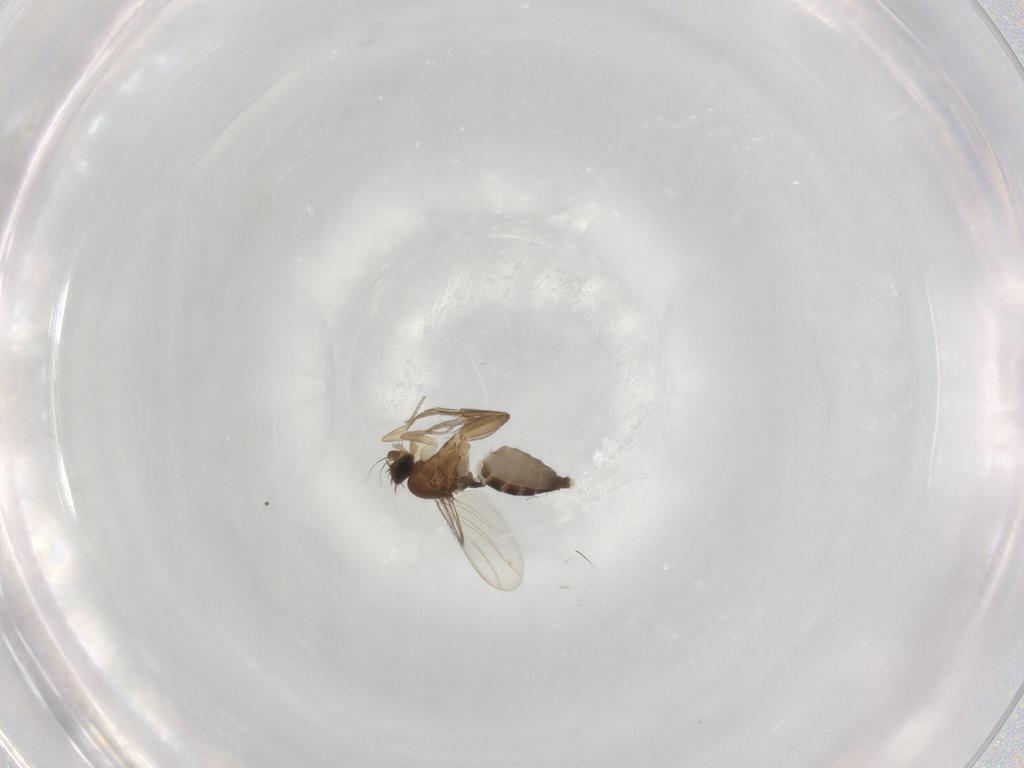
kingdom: Animalia
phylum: Arthropoda
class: Insecta
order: Diptera
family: Phoridae
